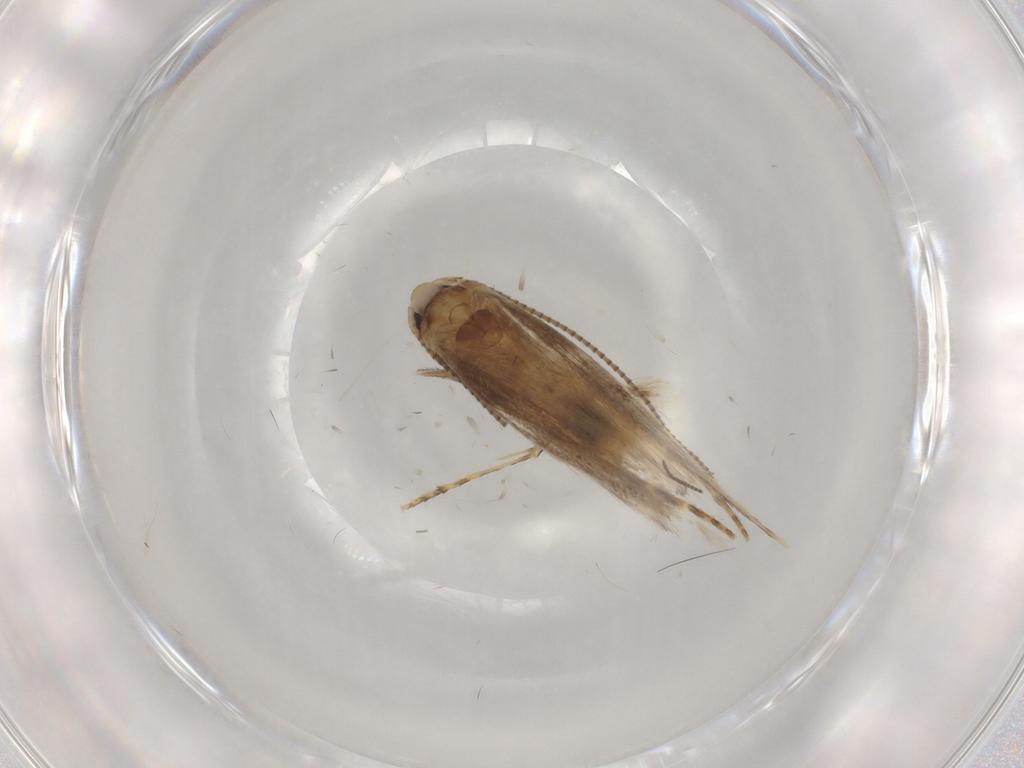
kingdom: Animalia
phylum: Arthropoda
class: Insecta
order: Lepidoptera
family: Gracillariidae
